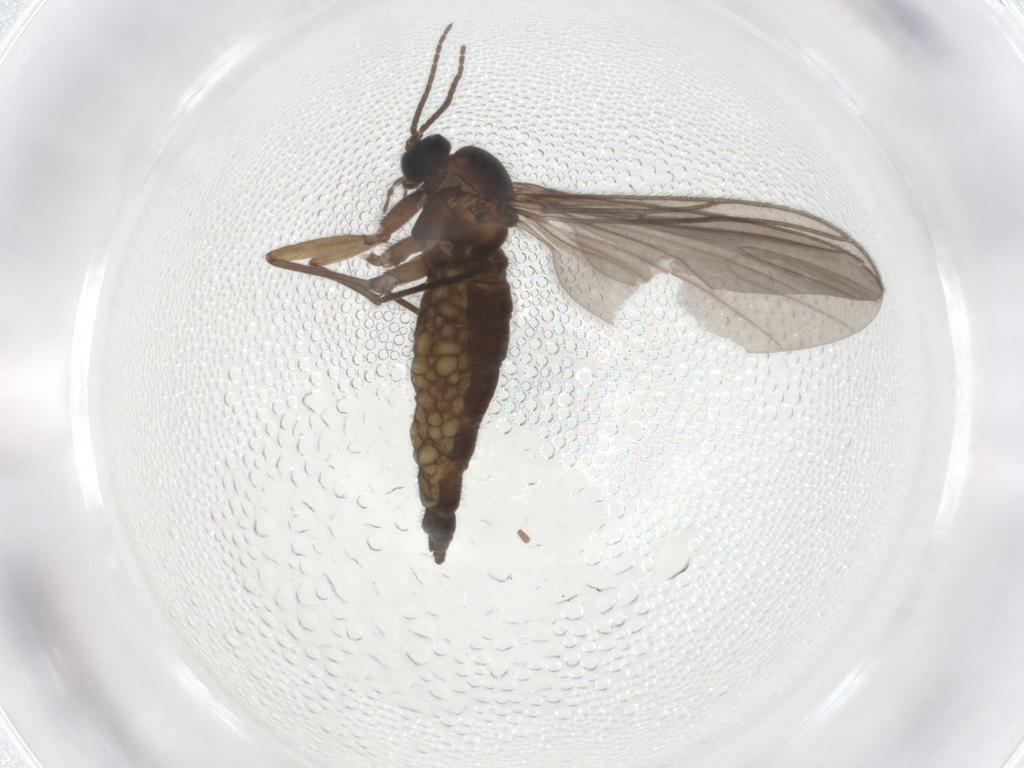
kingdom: Animalia
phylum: Arthropoda
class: Insecta
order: Diptera
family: Sciaridae
